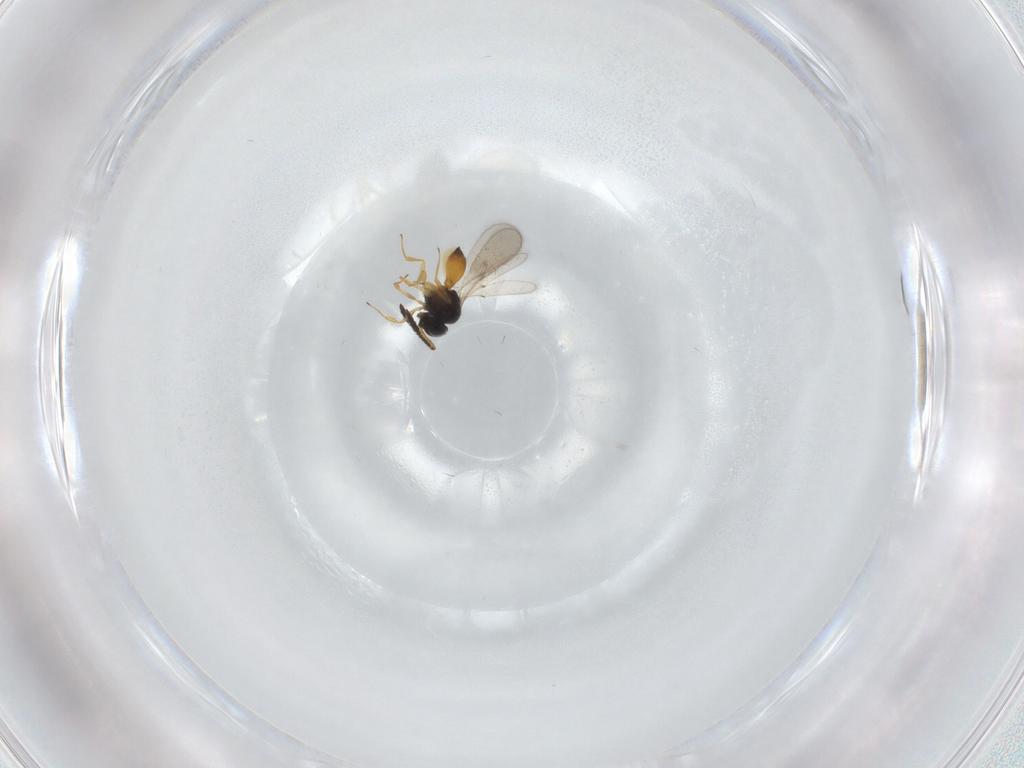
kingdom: Animalia
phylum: Arthropoda
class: Insecta
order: Hymenoptera
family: Scelionidae
